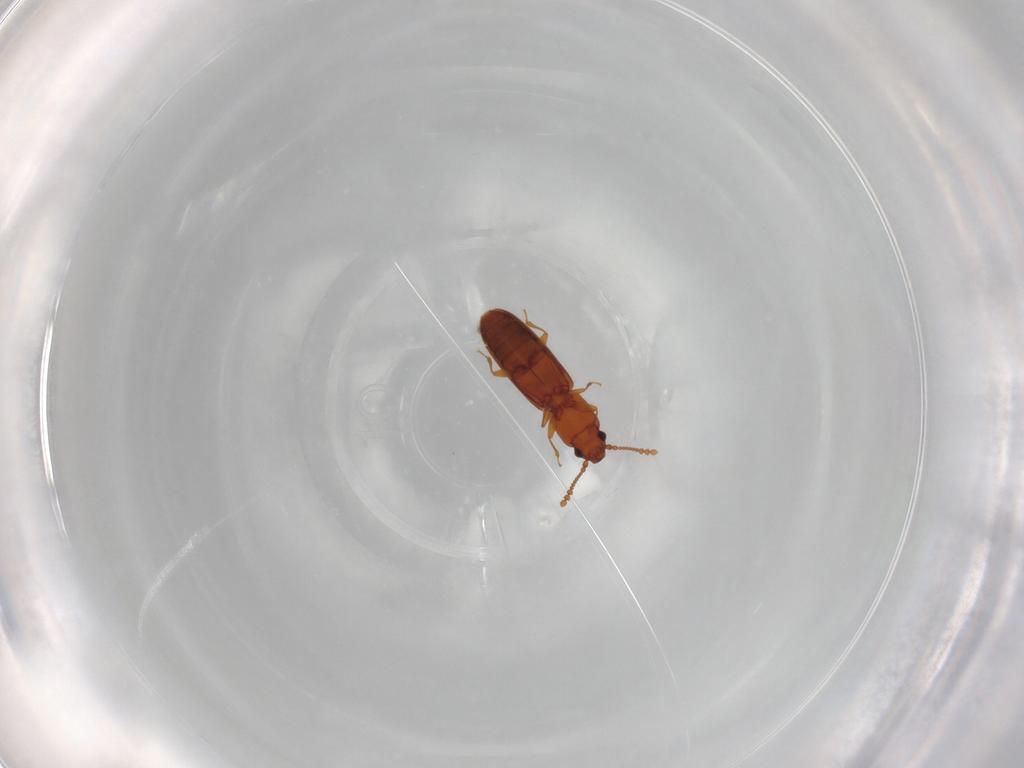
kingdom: Animalia
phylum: Arthropoda
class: Insecta
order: Coleoptera
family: Laemophloeidae
